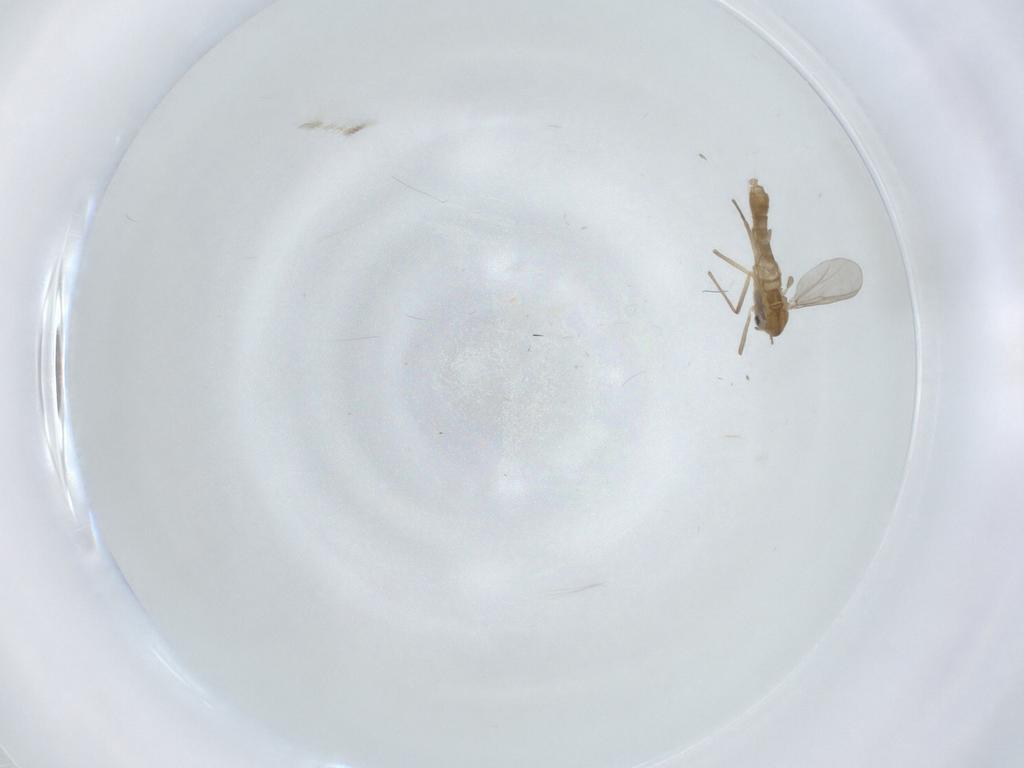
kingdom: Animalia
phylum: Arthropoda
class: Insecta
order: Diptera
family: Chironomidae
